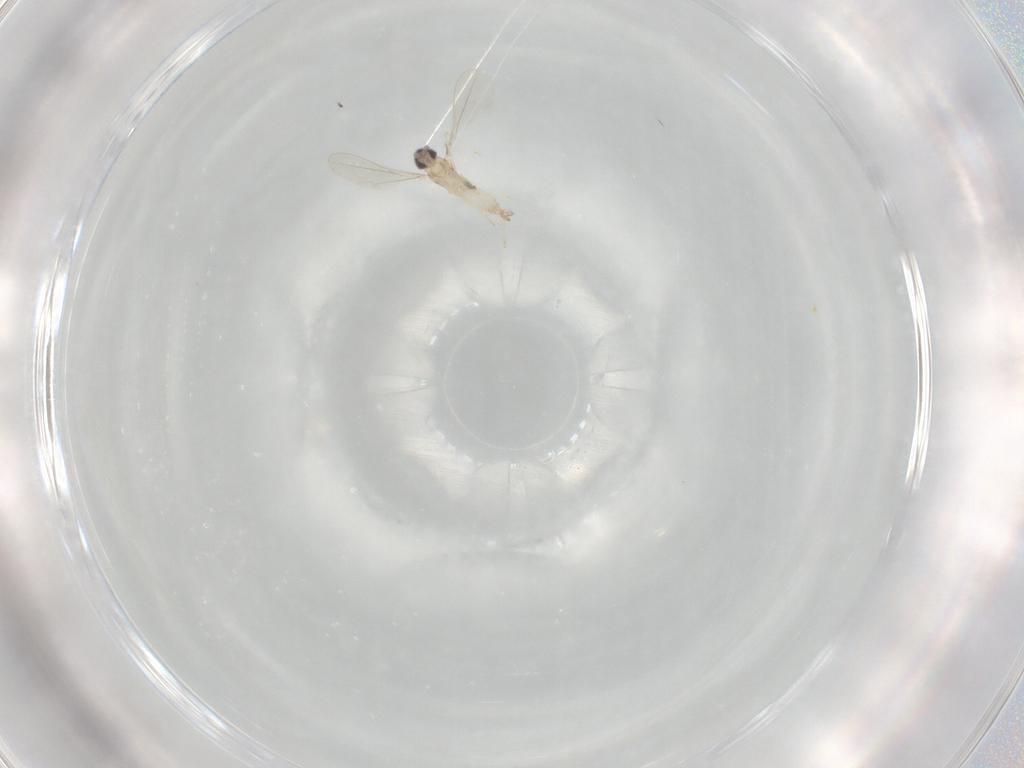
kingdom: Animalia
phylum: Arthropoda
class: Insecta
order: Diptera
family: Cecidomyiidae
